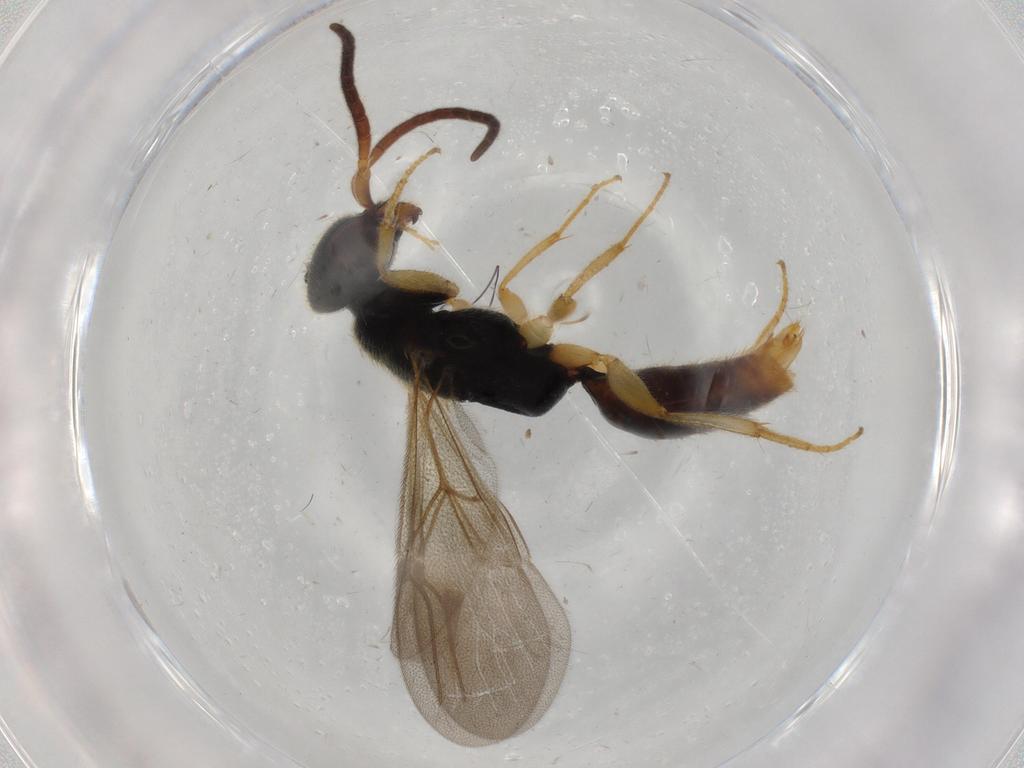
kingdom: Animalia
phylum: Arthropoda
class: Insecta
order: Hymenoptera
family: Bethylidae
